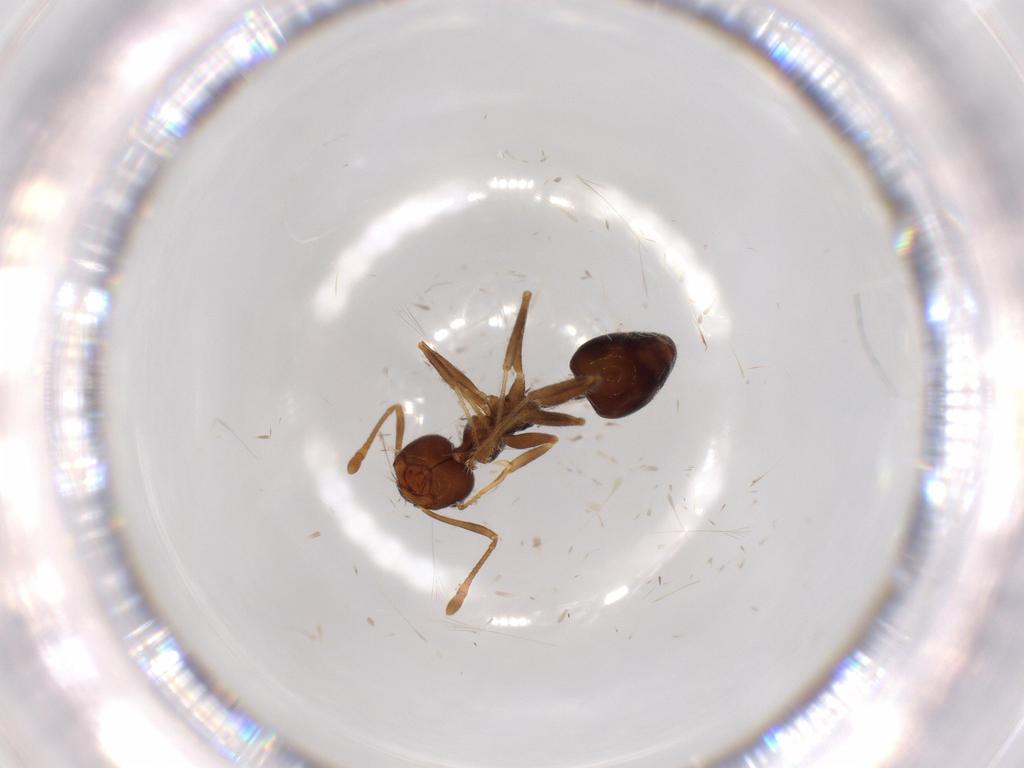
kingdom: Animalia
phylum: Arthropoda
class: Insecta
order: Hymenoptera
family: Formicidae
